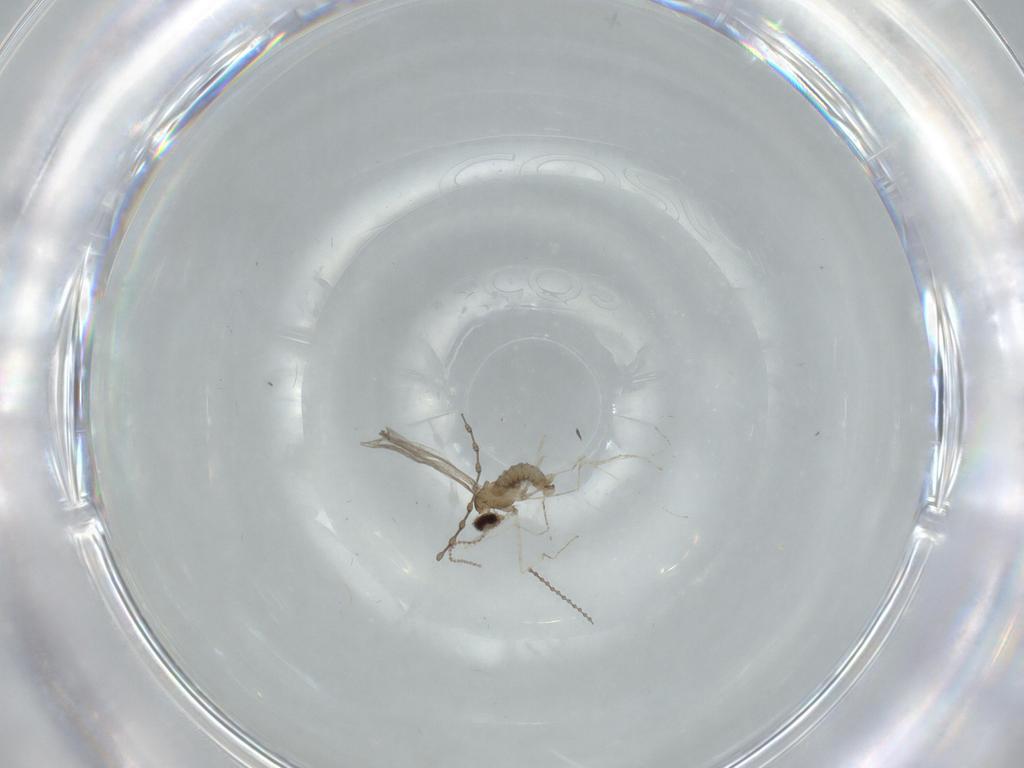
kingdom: Animalia
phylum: Arthropoda
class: Insecta
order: Diptera
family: Cecidomyiidae
